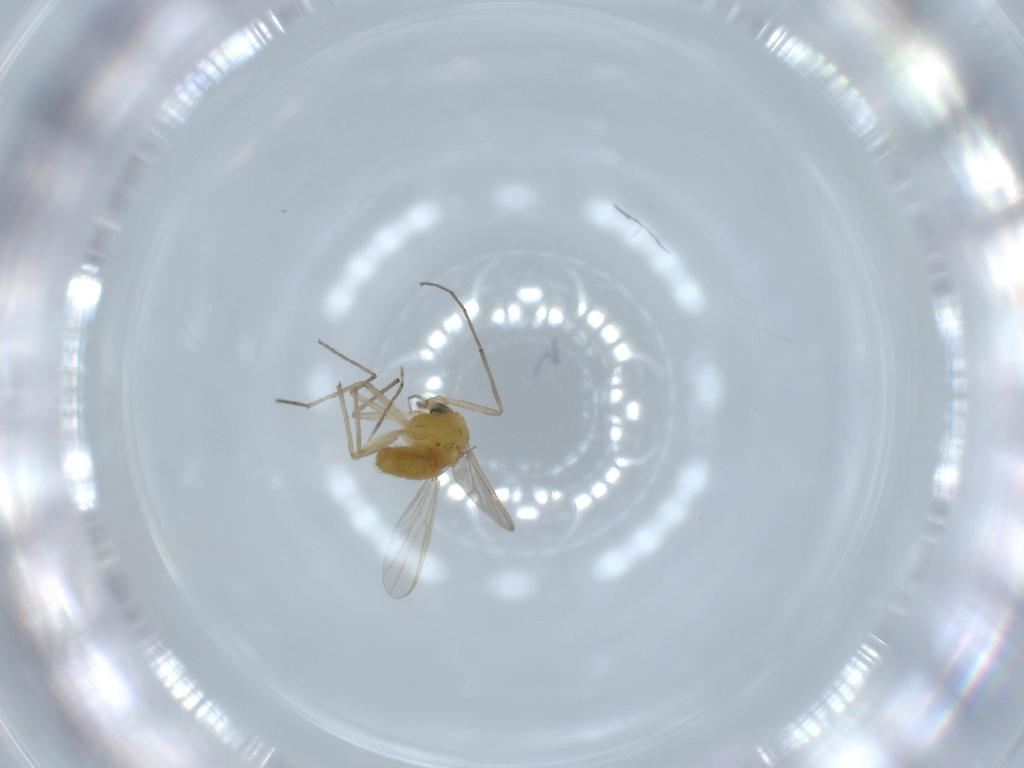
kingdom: Animalia
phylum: Arthropoda
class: Insecta
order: Diptera
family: Chironomidae
